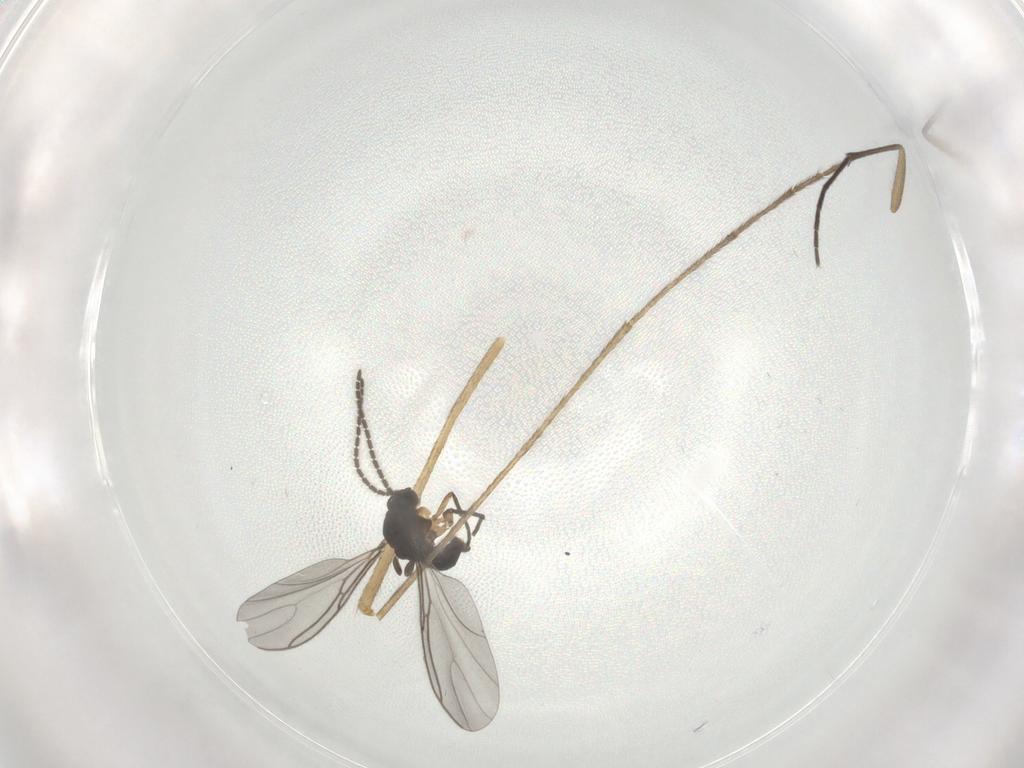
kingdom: Animalia
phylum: Arthropoda
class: Insecta
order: Diptera
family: Sciaridae
